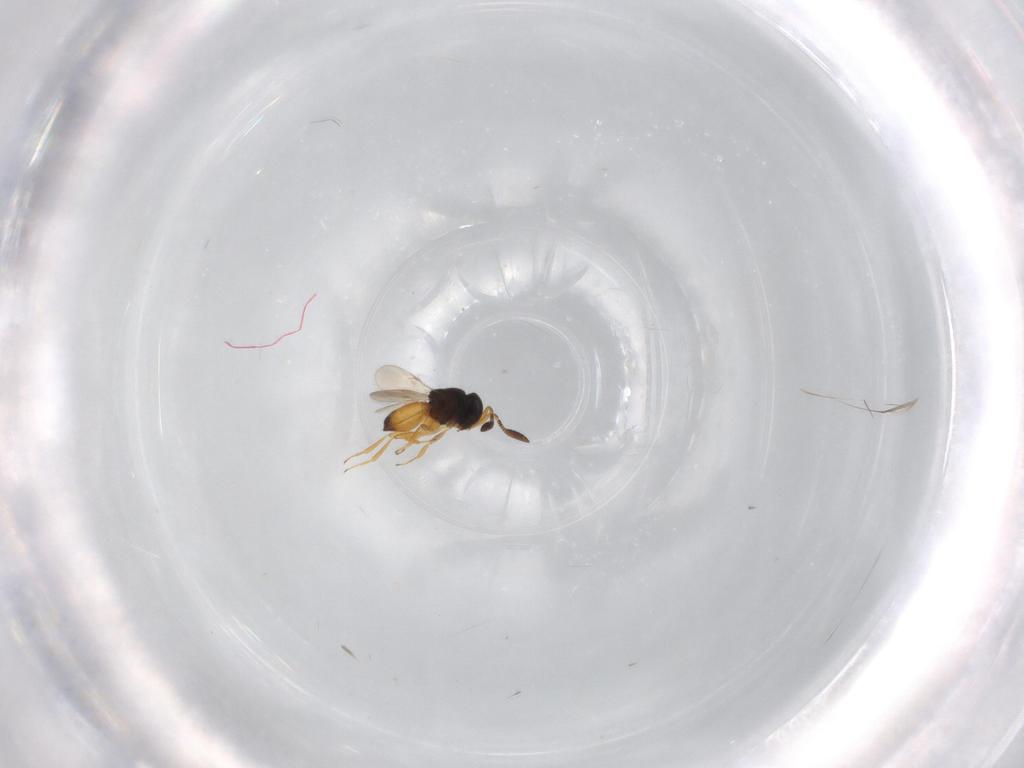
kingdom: Animalia
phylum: Arthropoda
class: Insecta
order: Hymenoptera
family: Scelionidae
